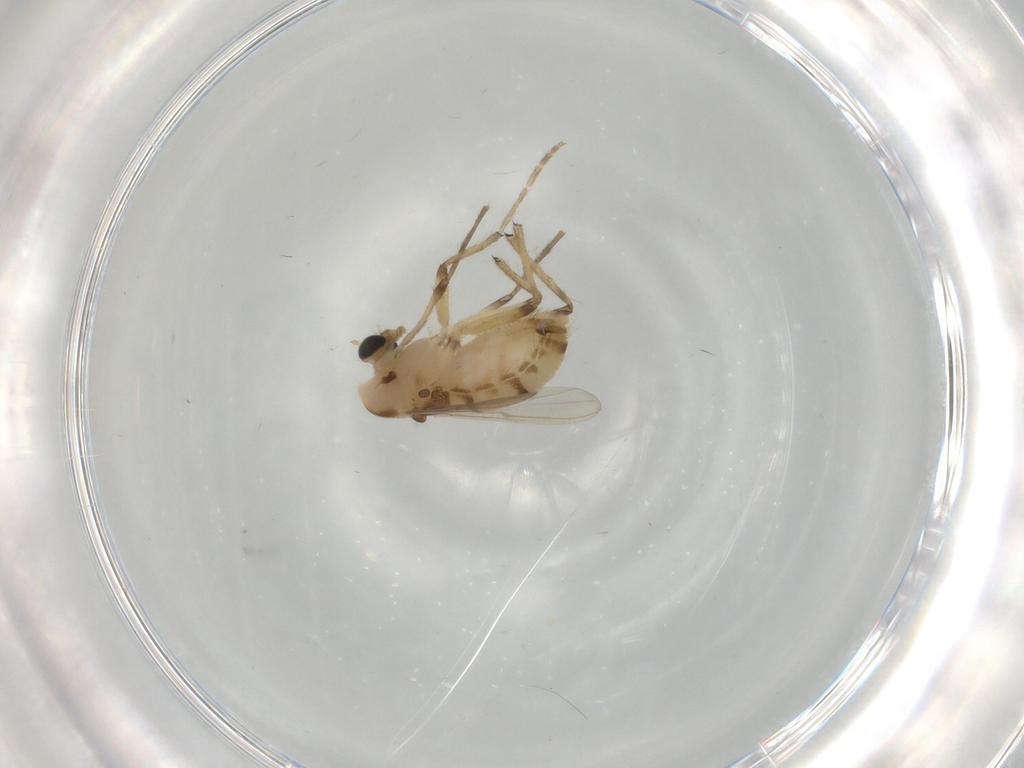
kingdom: Animalia
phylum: Arthropoda
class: Insecta
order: Diptera
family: Chironomidae
